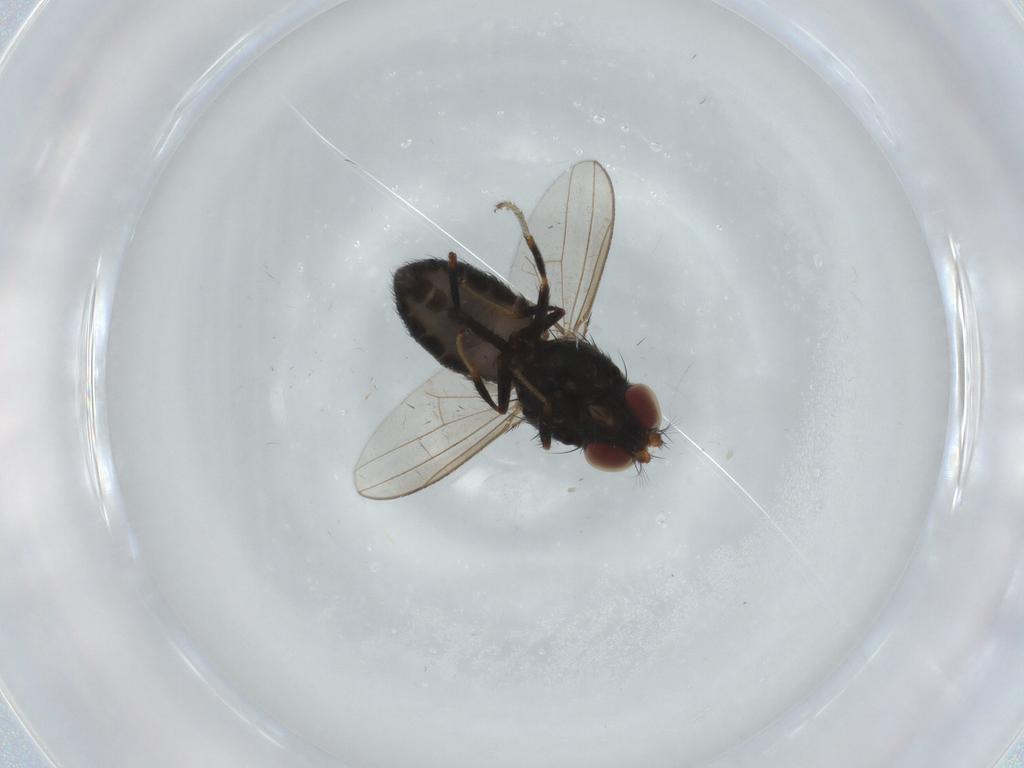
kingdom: Animalia
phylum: Arthropoda
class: Insecta
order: Diptera
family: Ephydridae
